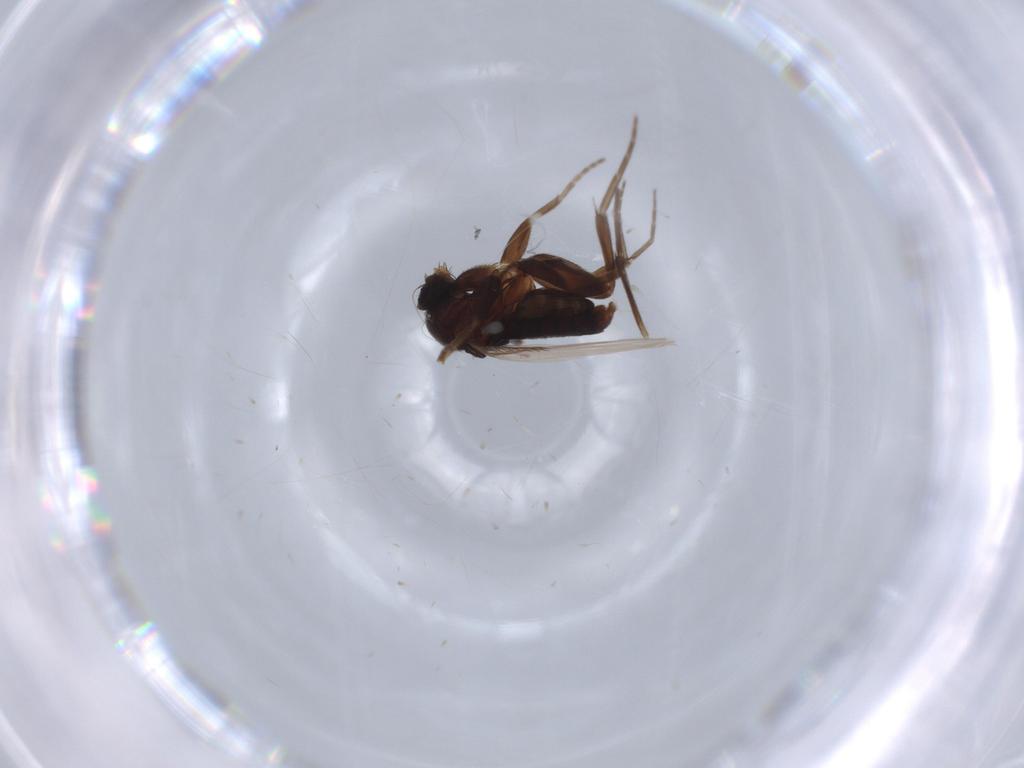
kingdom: Animalia
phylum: Arthropoda
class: Insecta
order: Diptera
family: Phoridae
